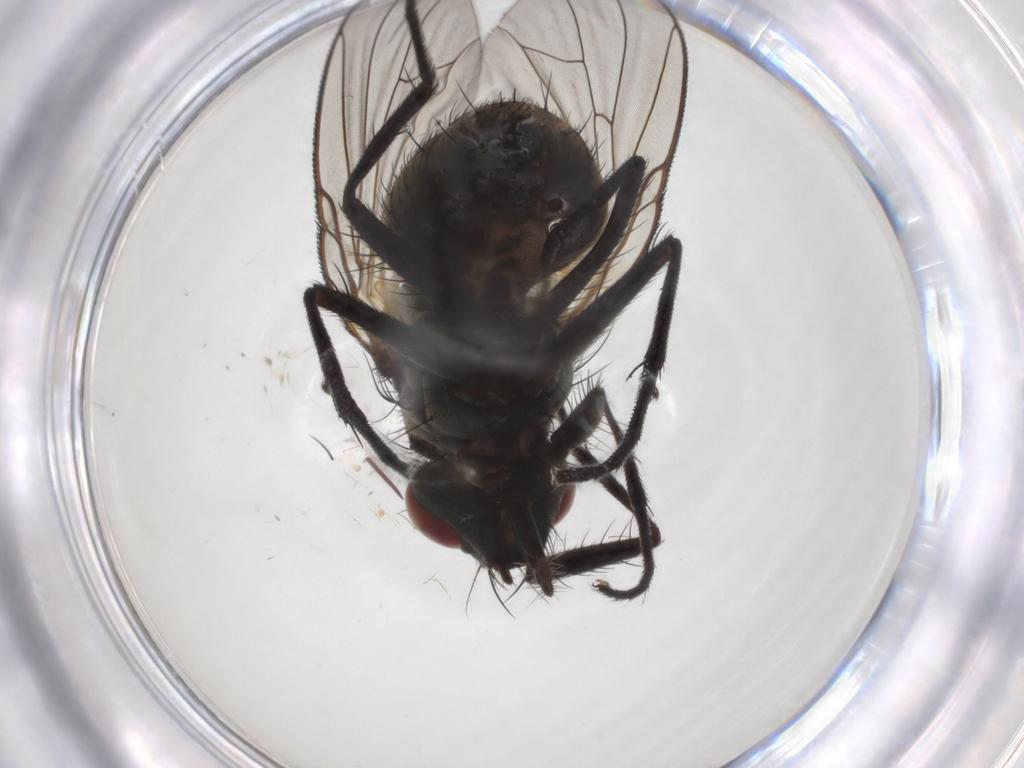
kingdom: Animalia
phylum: Arthropoda
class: Insecta
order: Diptera
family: Muscidae
